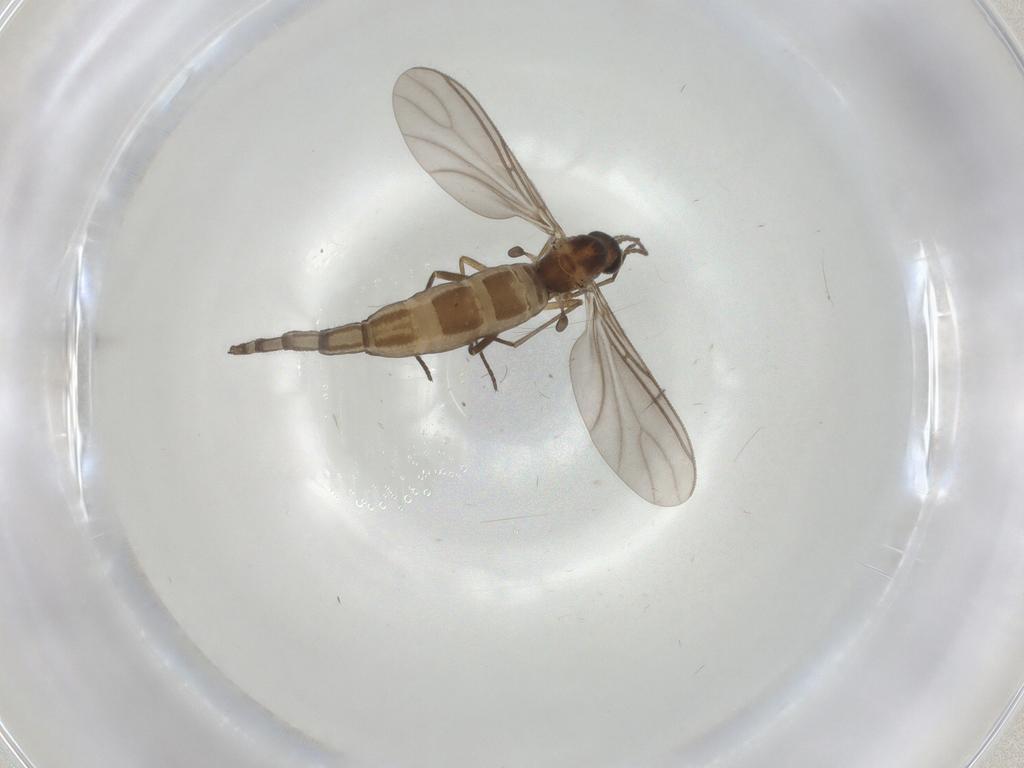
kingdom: Animalia
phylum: Arthropoda
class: Insecta
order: Diptera
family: Sciaridae
